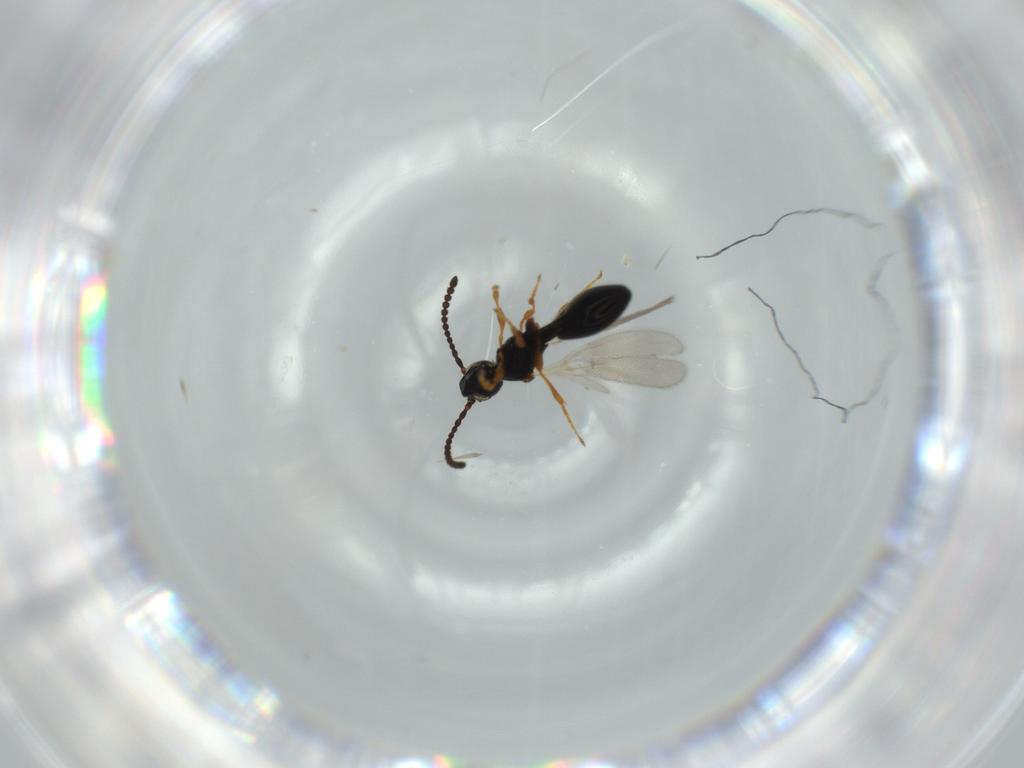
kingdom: Animalia
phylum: Arthropoda
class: Insecta
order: Hymenoptera
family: Diapriidae
